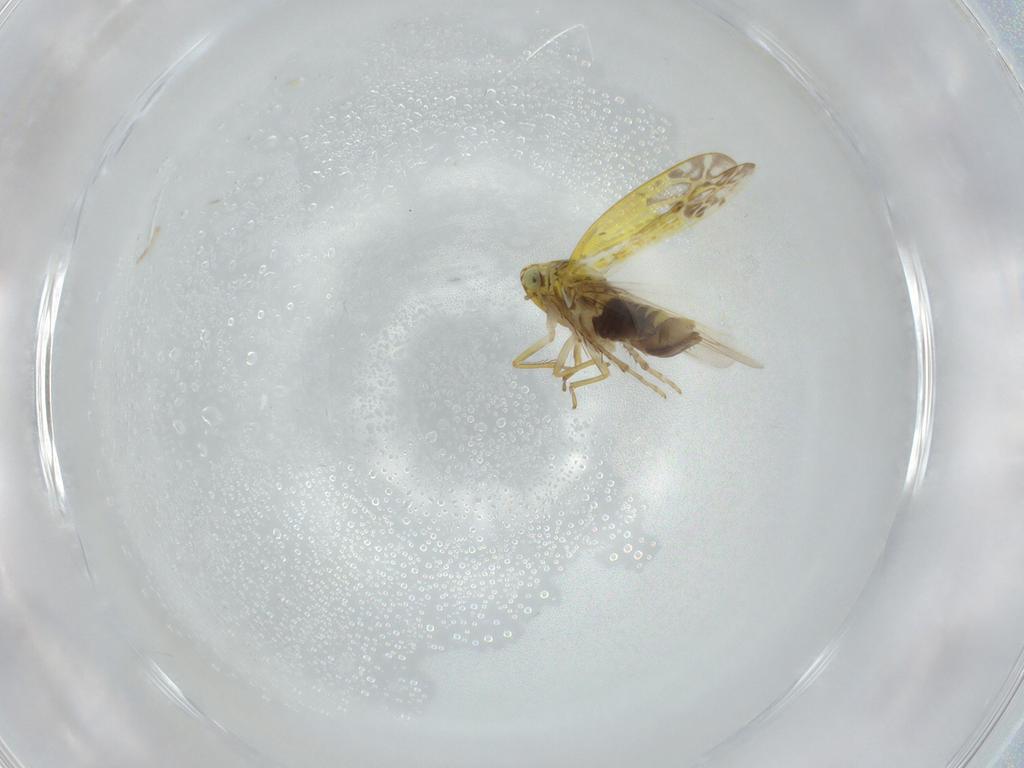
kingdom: Animalia
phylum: Arthropoda
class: Insecta
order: Hemiptera
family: Cicadellidae
